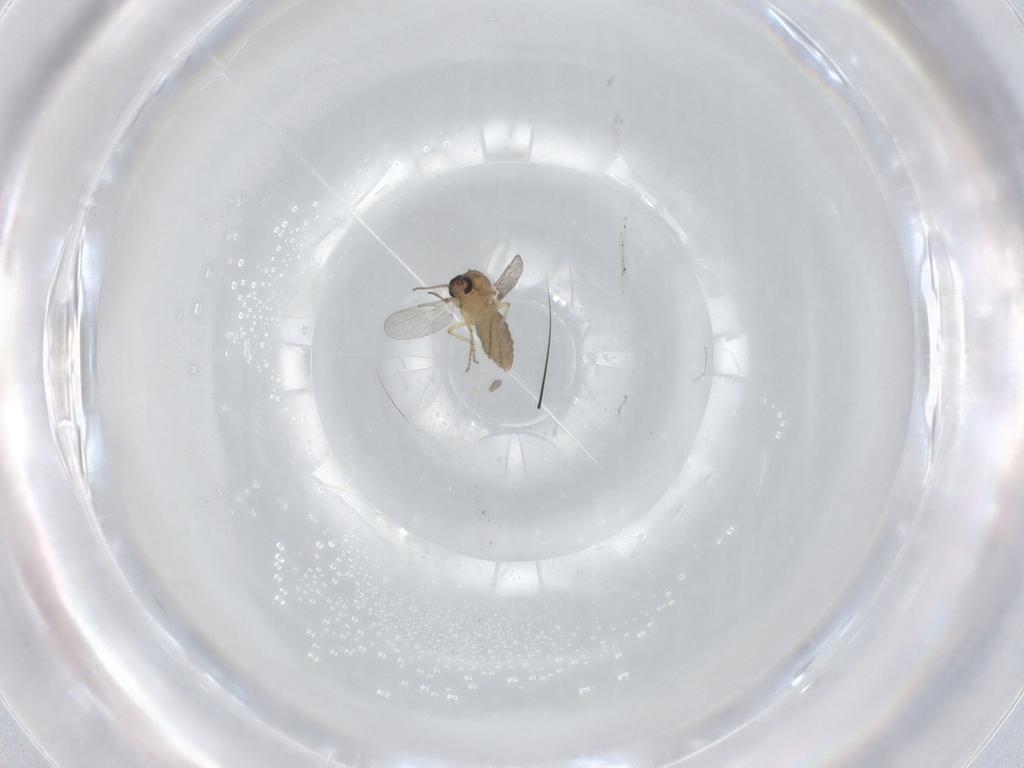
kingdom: Animalia
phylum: Arthropoda
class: Insecta
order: Diptera
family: Ceratopogonidae
